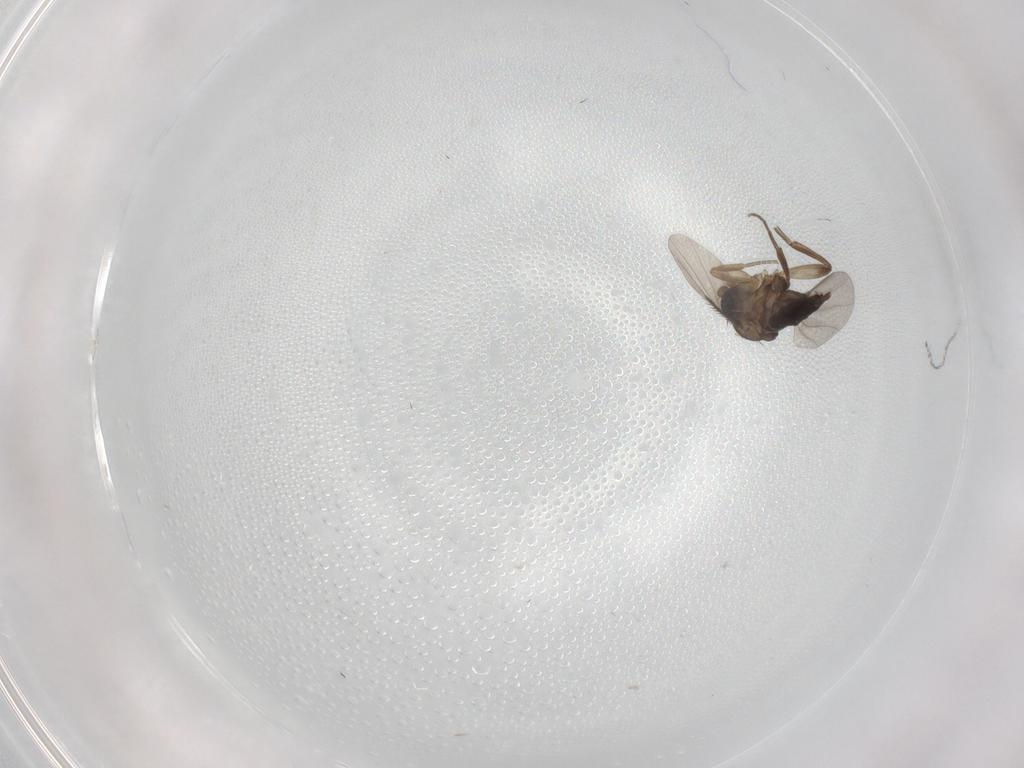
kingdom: Animalia
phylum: Arthropoda
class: Insecta
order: Diptera
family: Phoridae
